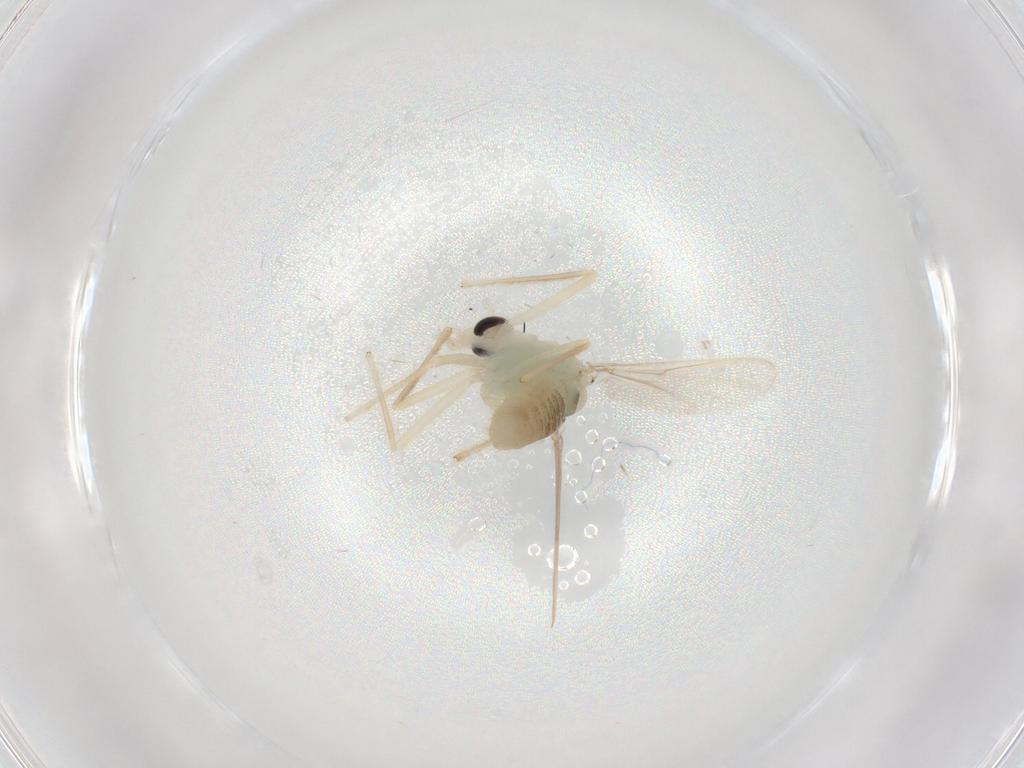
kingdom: Animalia
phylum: Arthropoda
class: Insecta
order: Diptera
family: Chironomidae
